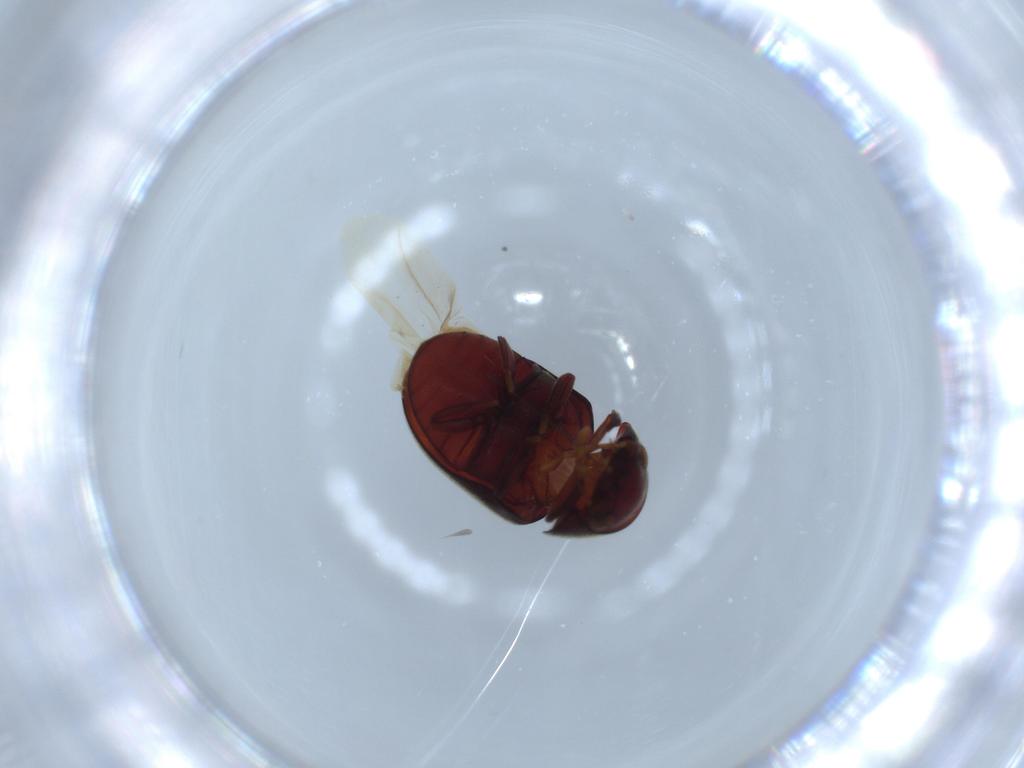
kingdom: Animalia
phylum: Arthropoda
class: Insecta
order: Coleoptera
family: Ptinidae
